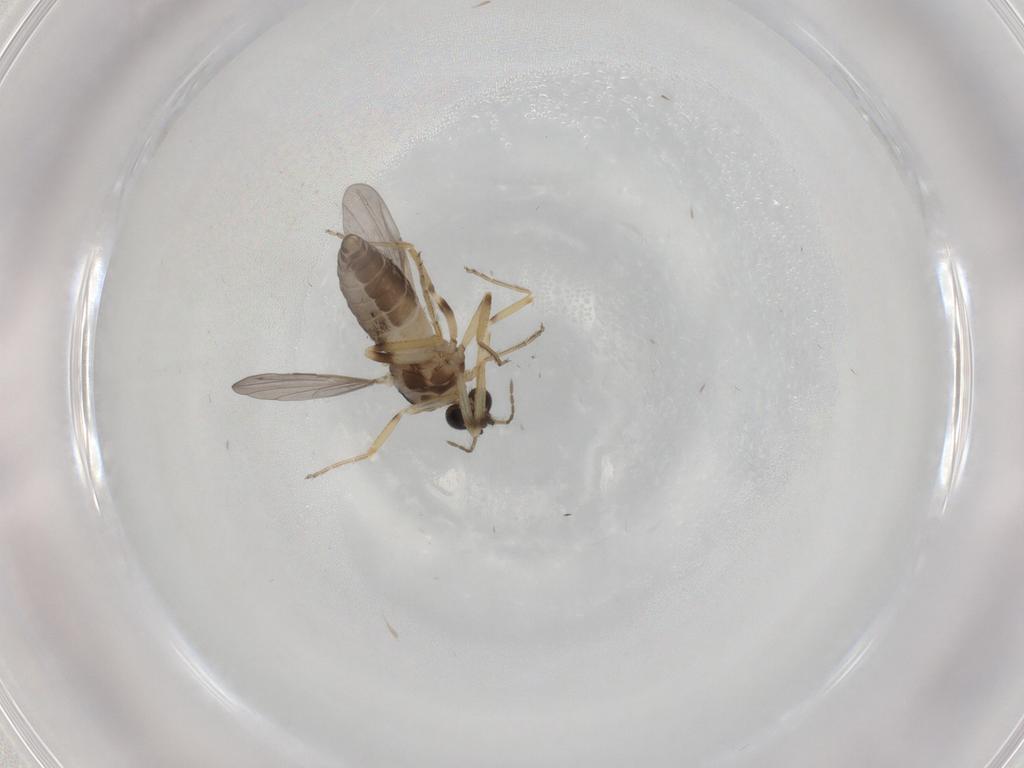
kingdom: Animalia
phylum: Arthropoda
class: Insecta
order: Diptera
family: Ceratopogonidae
